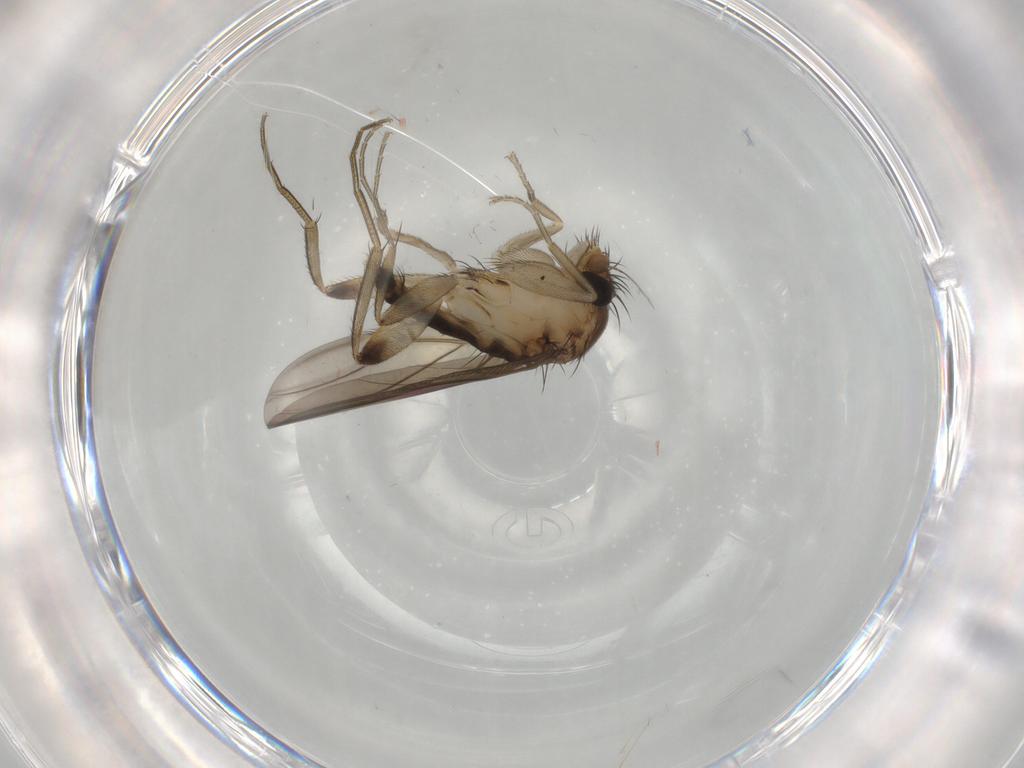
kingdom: Animalia
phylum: Arthropoda
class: Insecta
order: Diptera
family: Phoridae
